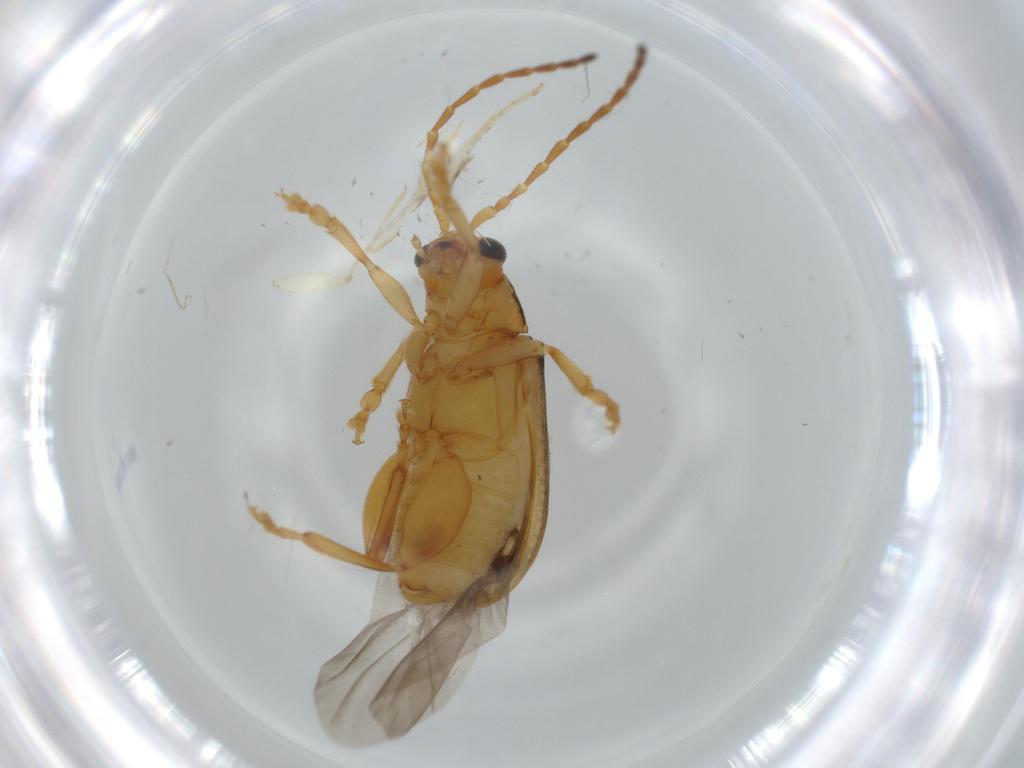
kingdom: Animalia
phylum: Arthropoda
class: Insecta
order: Coleoptera
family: Chrysomelidae
